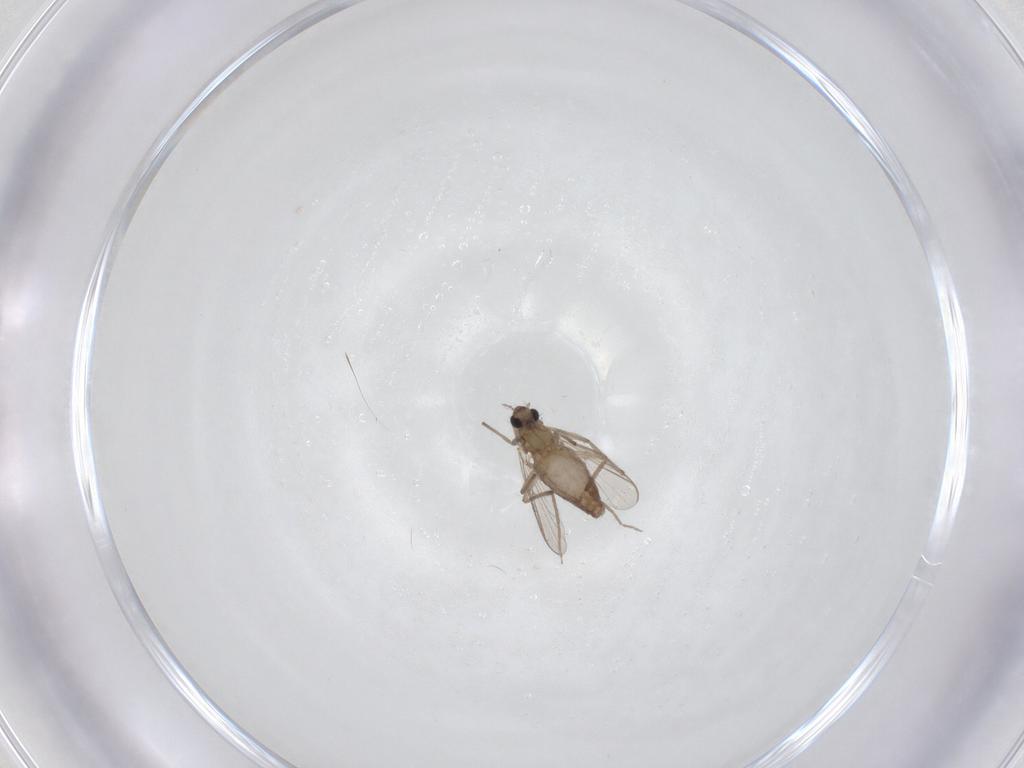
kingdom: Animalia
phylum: Arthropoda
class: Insecta
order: Diptera
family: Chironomidae
